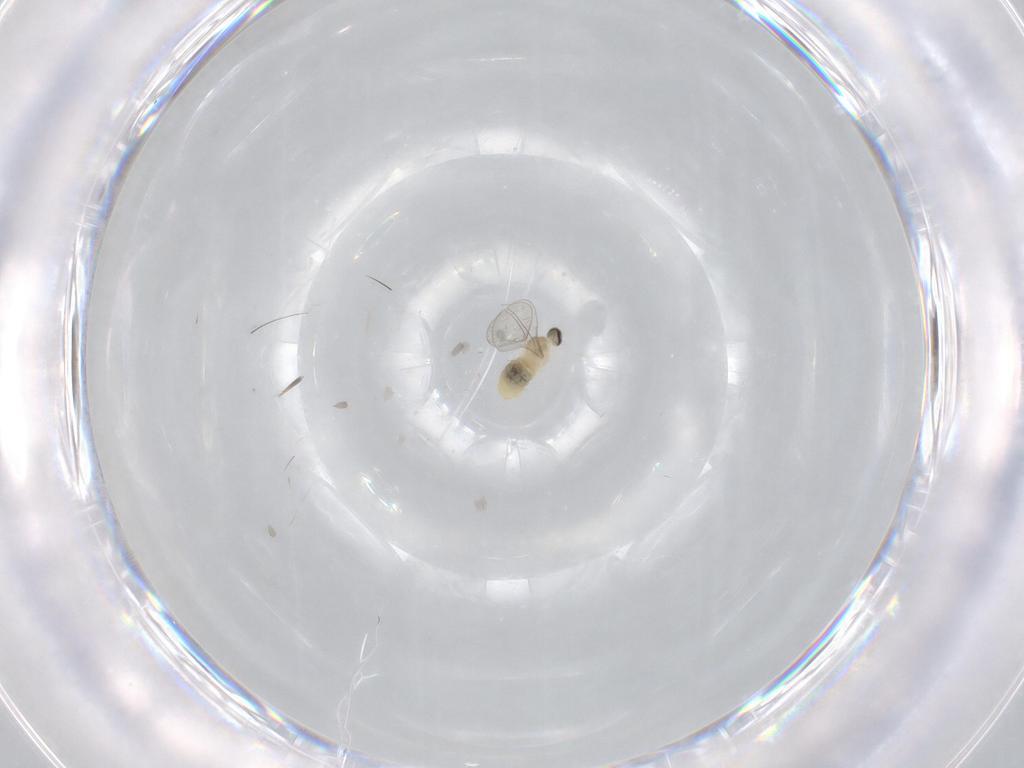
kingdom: Animalia
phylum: Arthropoda
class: Insecta
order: Diptera
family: Cecidomyiidae
